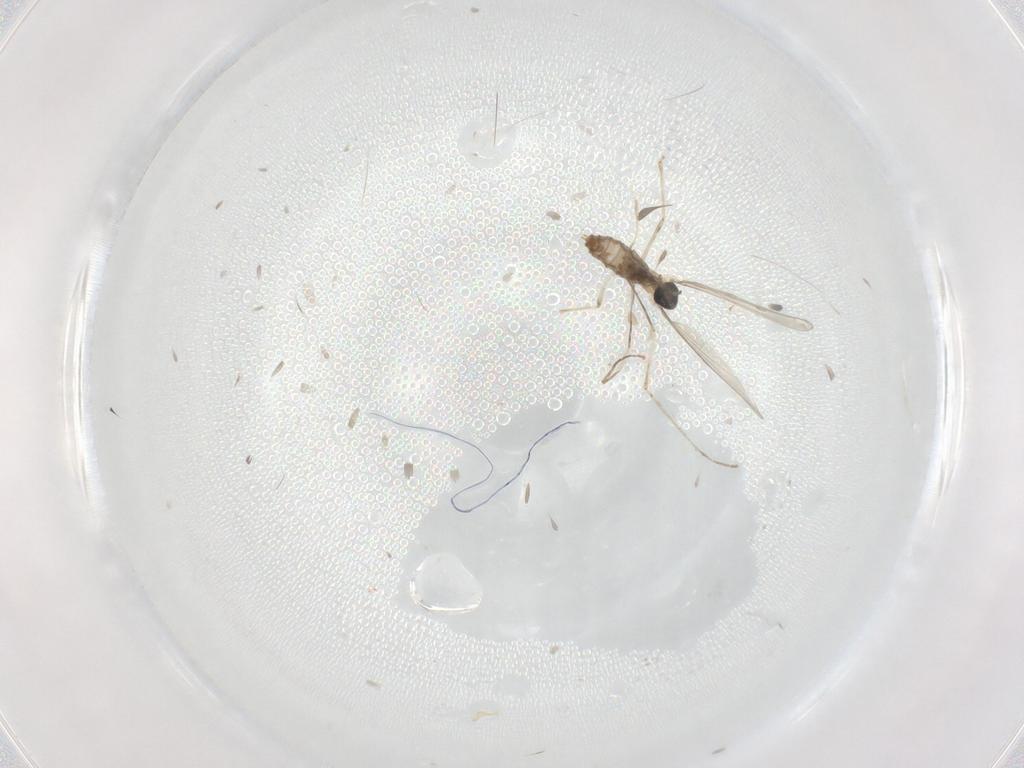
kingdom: Animalia
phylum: Arthropoda
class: Insecta
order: Diptera
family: Cecidomyiidae
